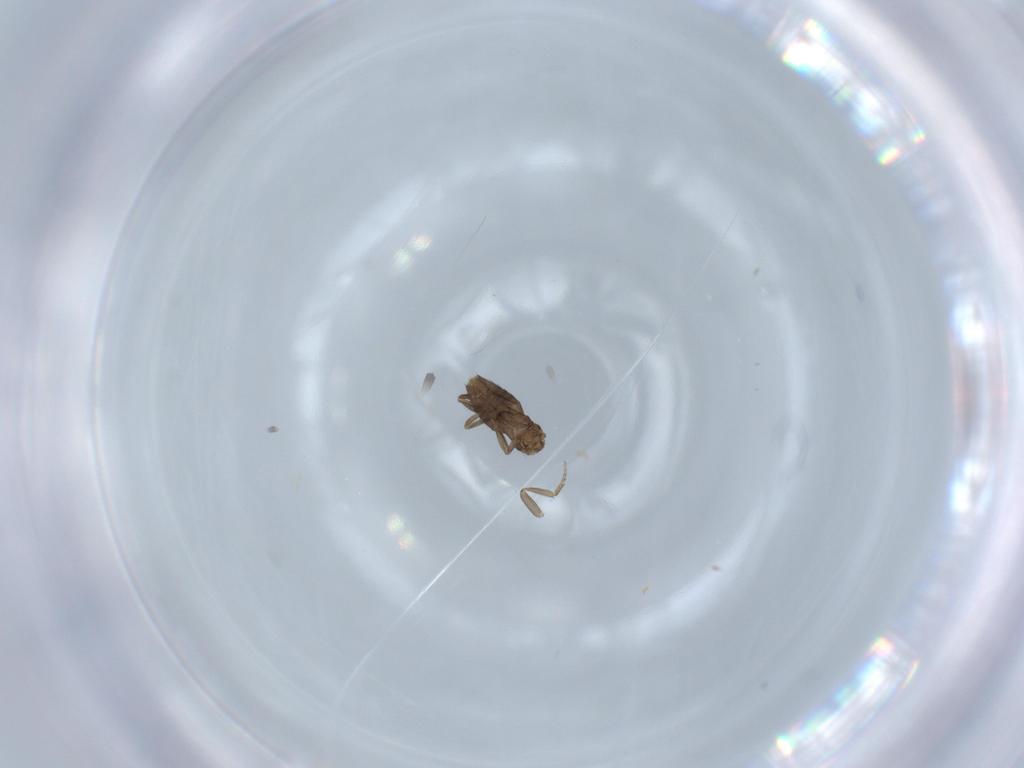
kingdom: Animalia
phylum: Arthropoda
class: Insecta
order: Diptera
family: Phoridae
